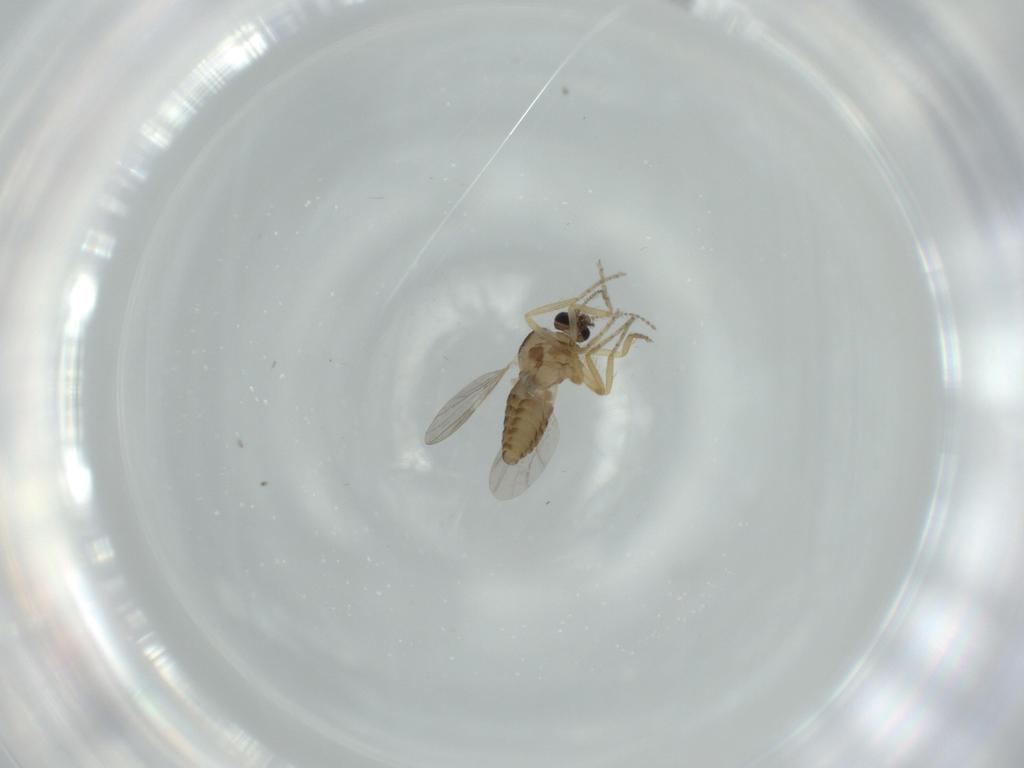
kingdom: Animalia
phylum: Arthropoda
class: Insecta
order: Diptera
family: Ceratopogonidae
